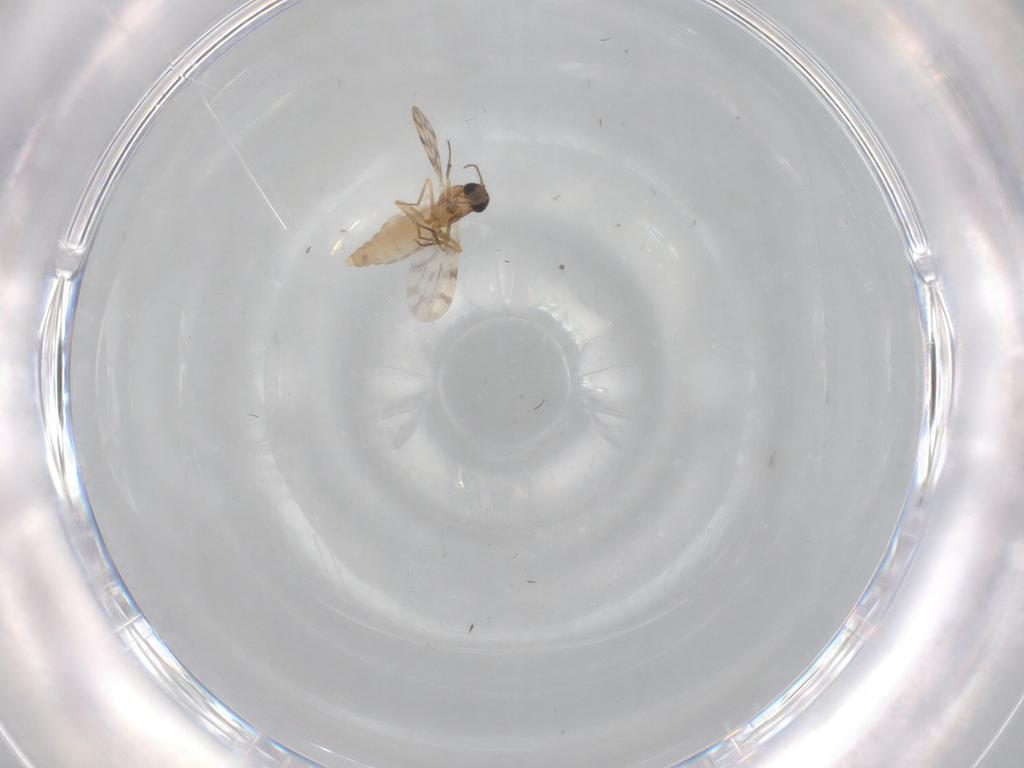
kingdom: Animalia
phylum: Arthropoda
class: Insecta
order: Diptera
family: Ceratopogonidae
